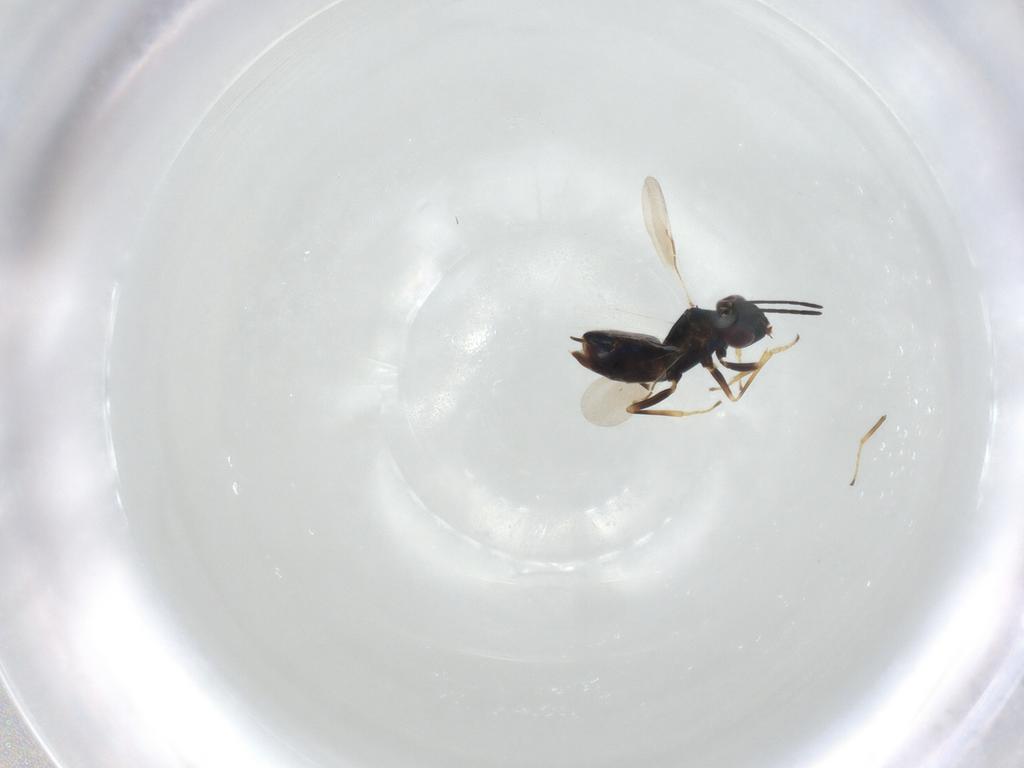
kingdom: Animalia
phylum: Arthropoda
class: Insecta
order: Hymenoptera
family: Encyrtidae
